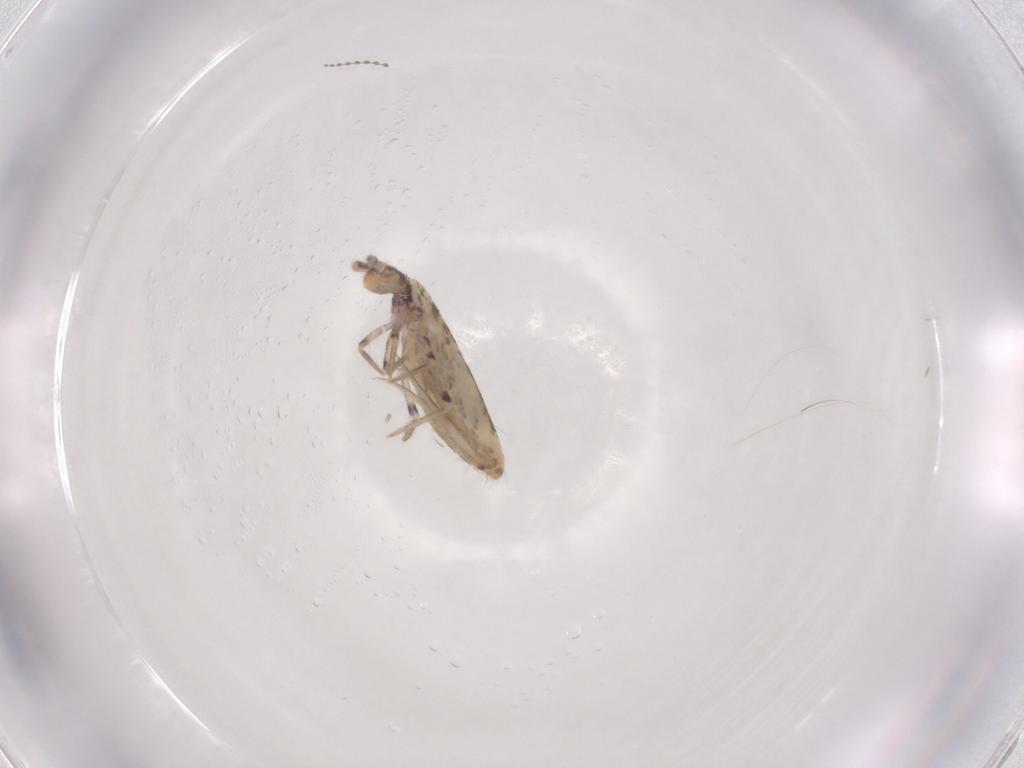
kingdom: Animalia
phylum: Arthropoda
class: Collembola
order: Entomobryomorpha
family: Entomobryidae
